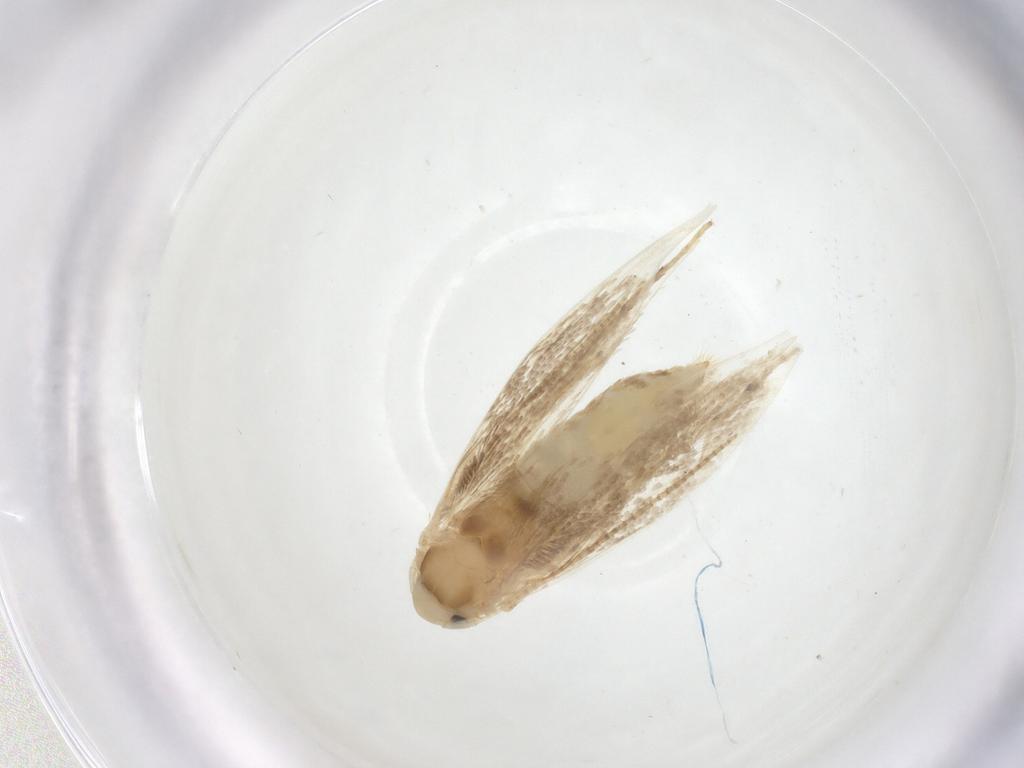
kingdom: Animalia
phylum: Arthropoda
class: Insecta
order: Lepidoptera
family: Gracillariidae
